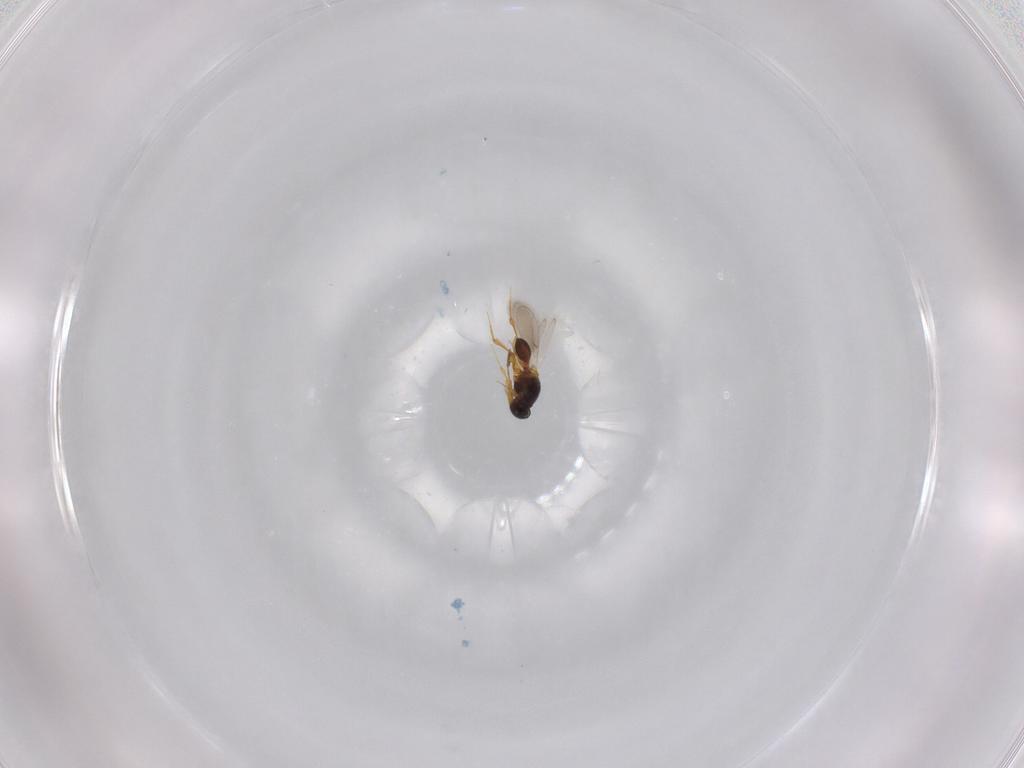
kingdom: Animalia
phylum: Arthropoda
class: Insecta
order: Hymenoptera
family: Platygastridae
